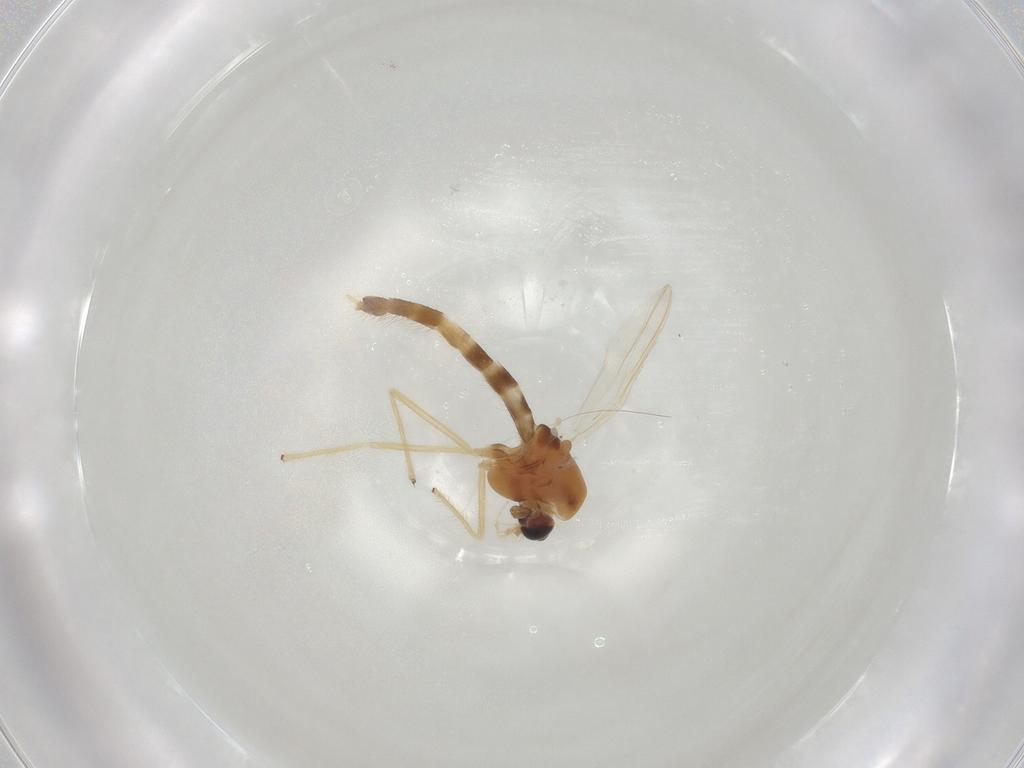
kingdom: Animalia
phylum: Arthropoda
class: Insecta
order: Diptera
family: Chironomidae
